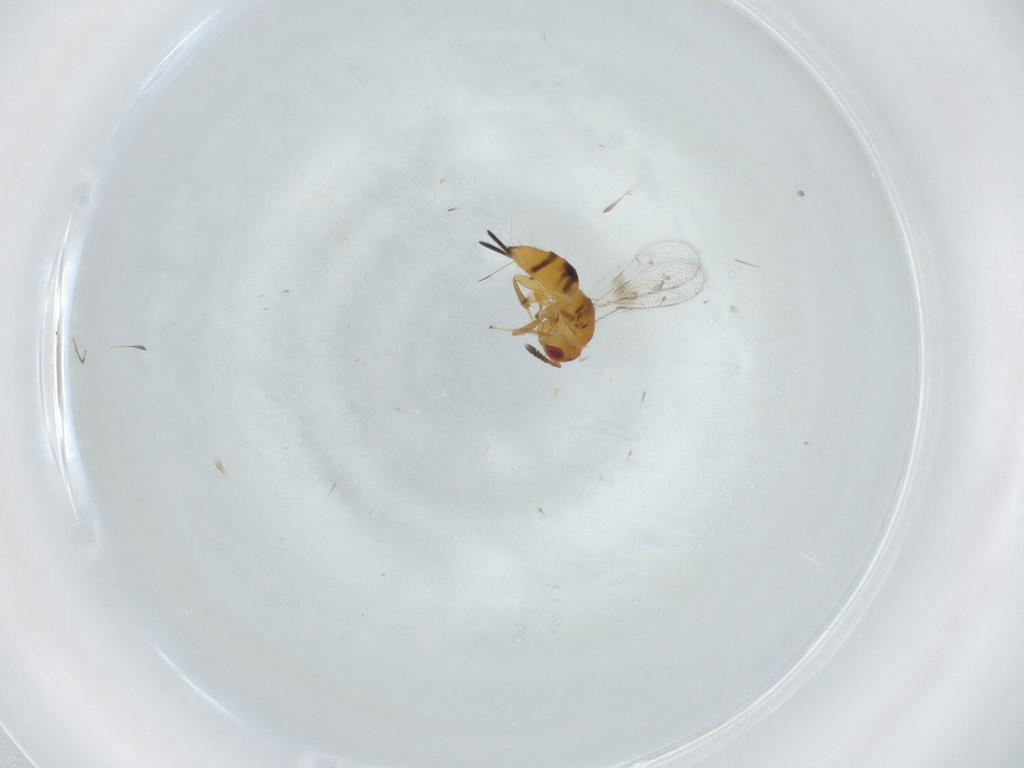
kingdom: Animalia
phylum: Arthropoda
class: Insecta
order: Hymenoptera
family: Torymidae
